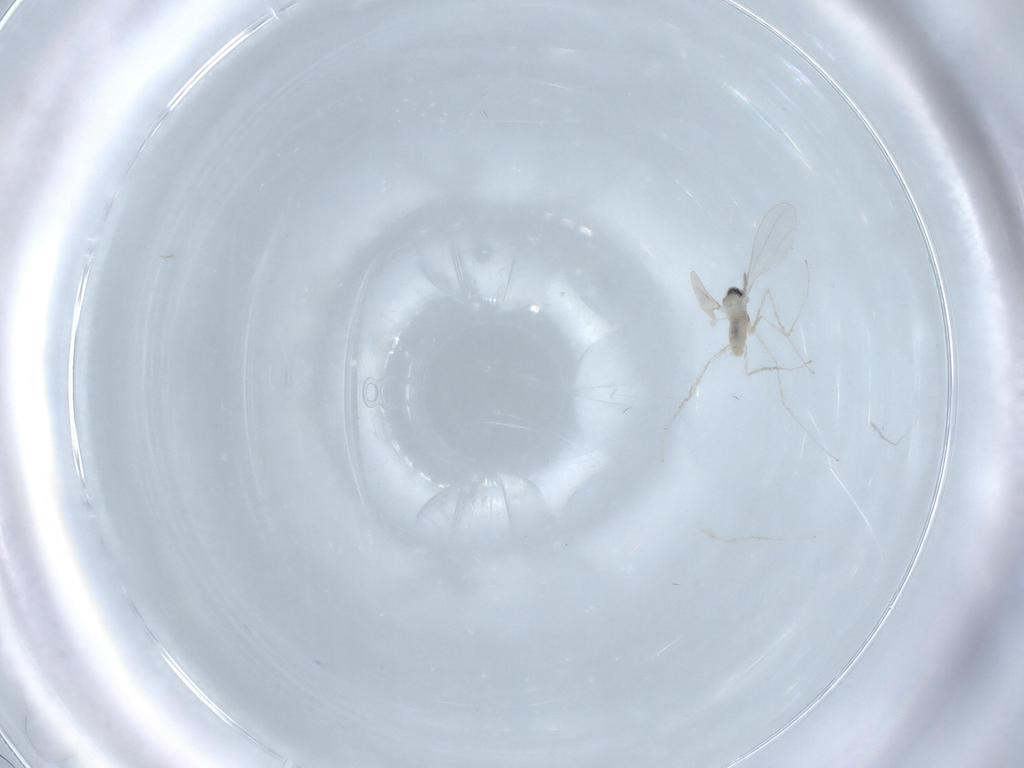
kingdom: Animalia
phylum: Arthropoda
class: Insecta
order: Diptera
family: Cecidomyiidae
